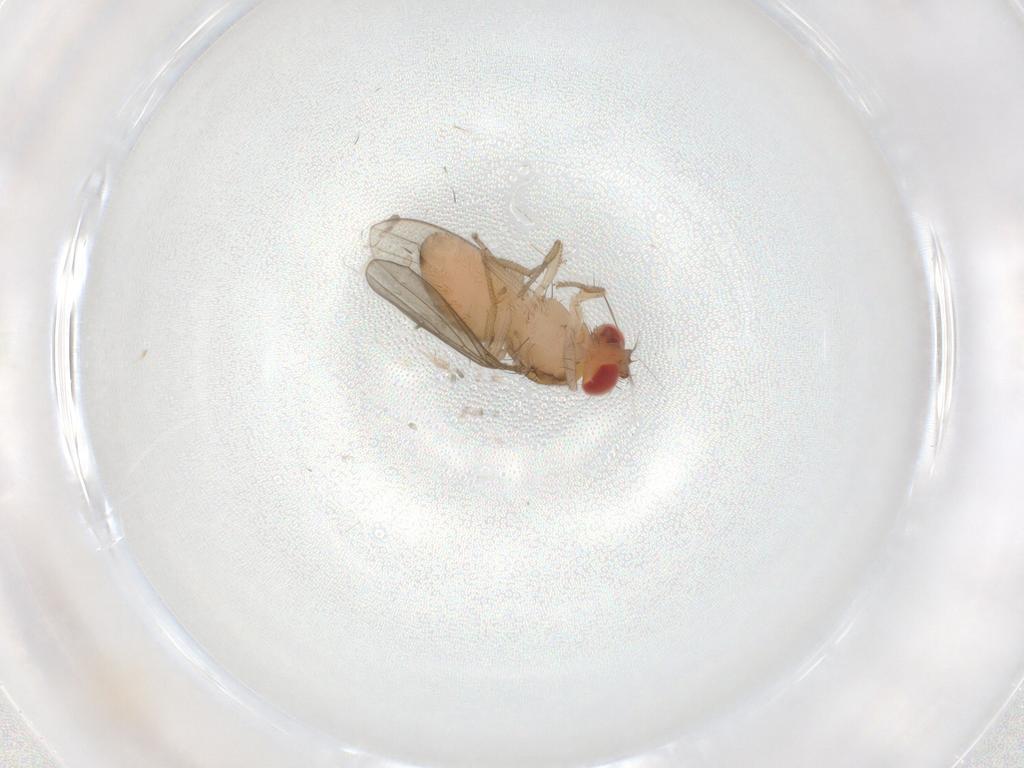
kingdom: Animalia
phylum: Arthropoda
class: Insecta
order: Diptera
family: Drosophilidae
